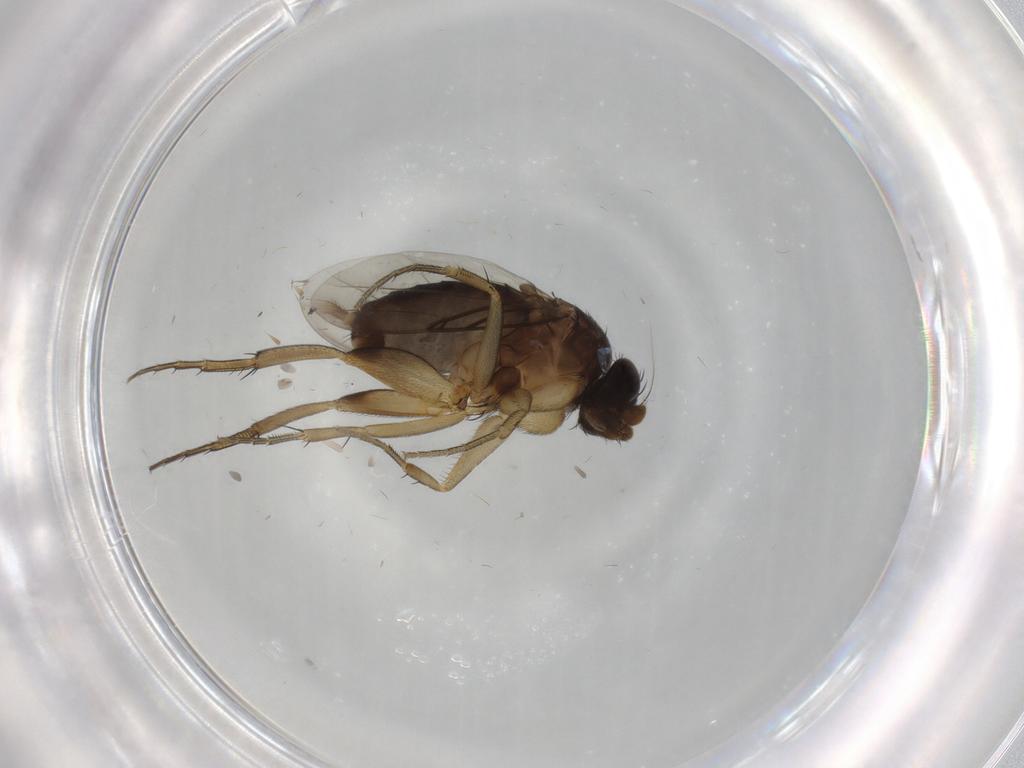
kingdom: Animalia
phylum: Arthropoda
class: Insecta
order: Diptera
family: Phoridae
